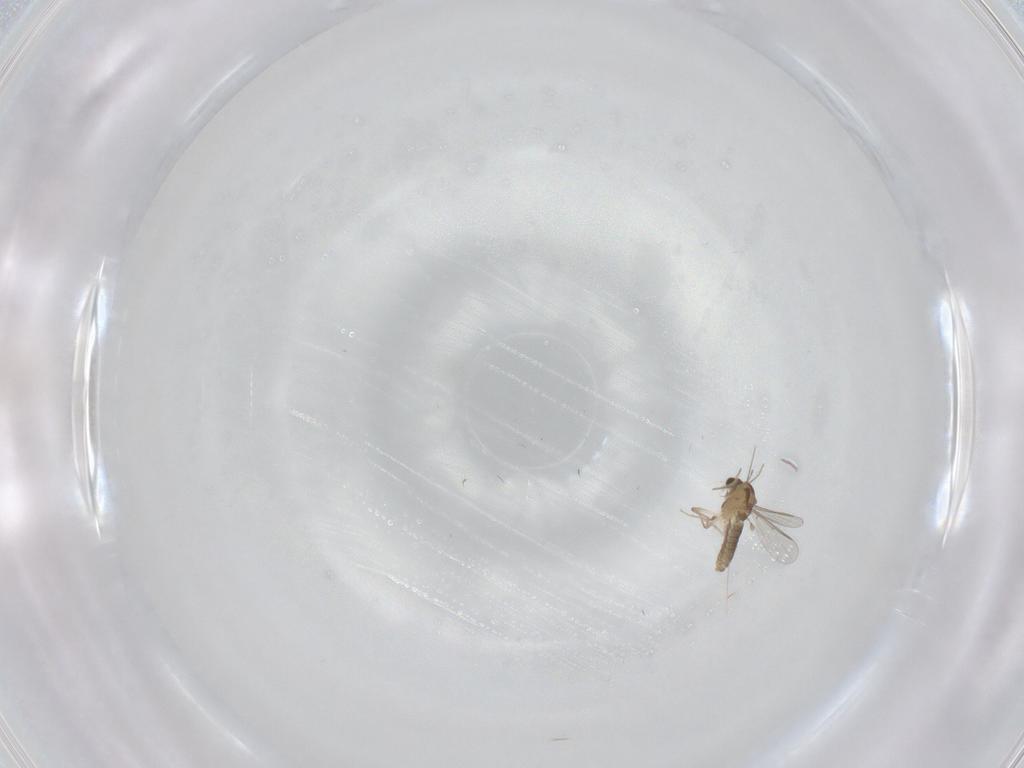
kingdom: Animalia
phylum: Arthropoda
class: Insecta
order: Diptera
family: Chironomidae
